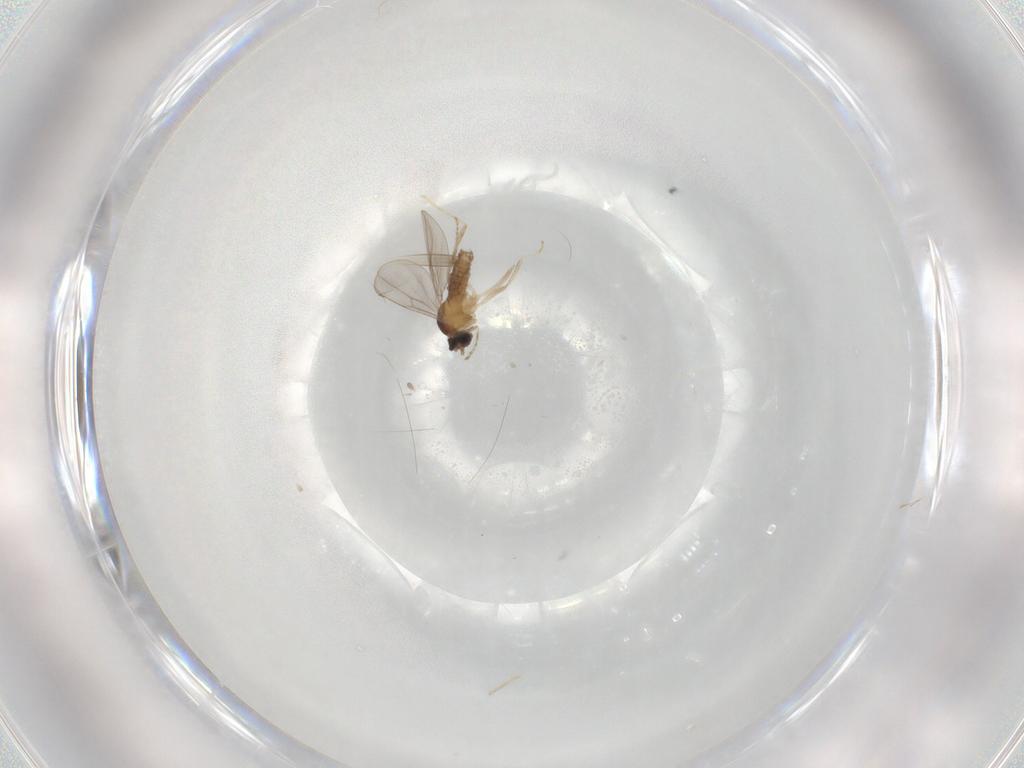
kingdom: Animalia
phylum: Arthropoda
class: Insecta
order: Diptera
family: Cecidomyiidae
